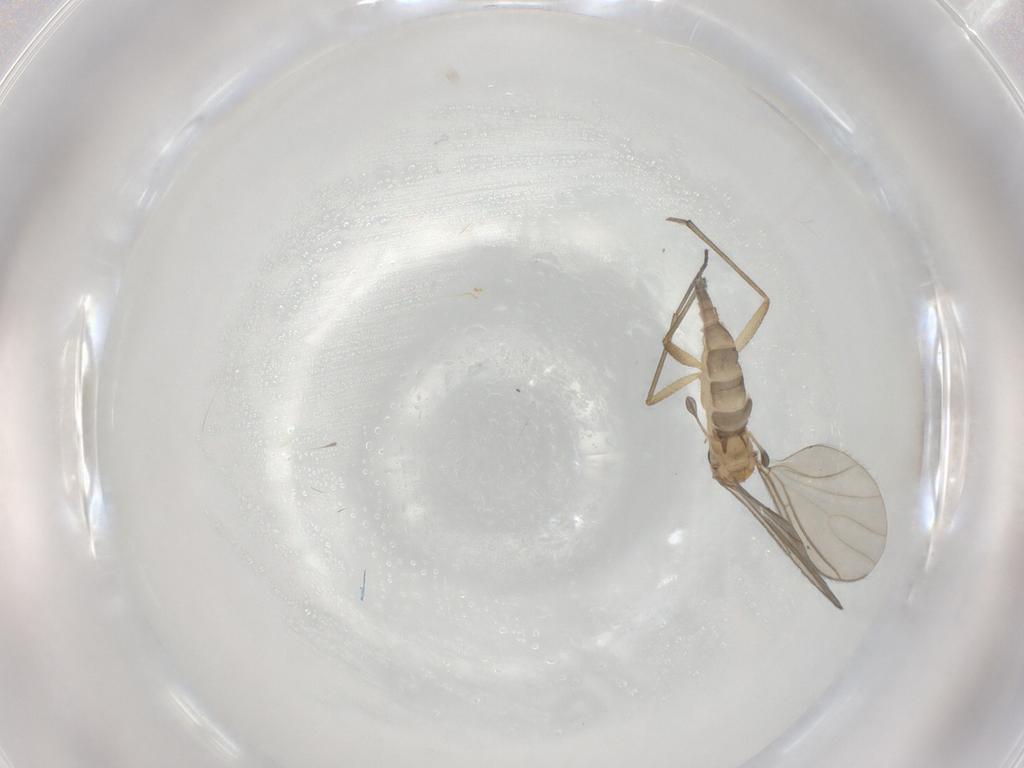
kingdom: Animalia
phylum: Arthropoda
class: Insecta
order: Diptera
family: Sciaridae
